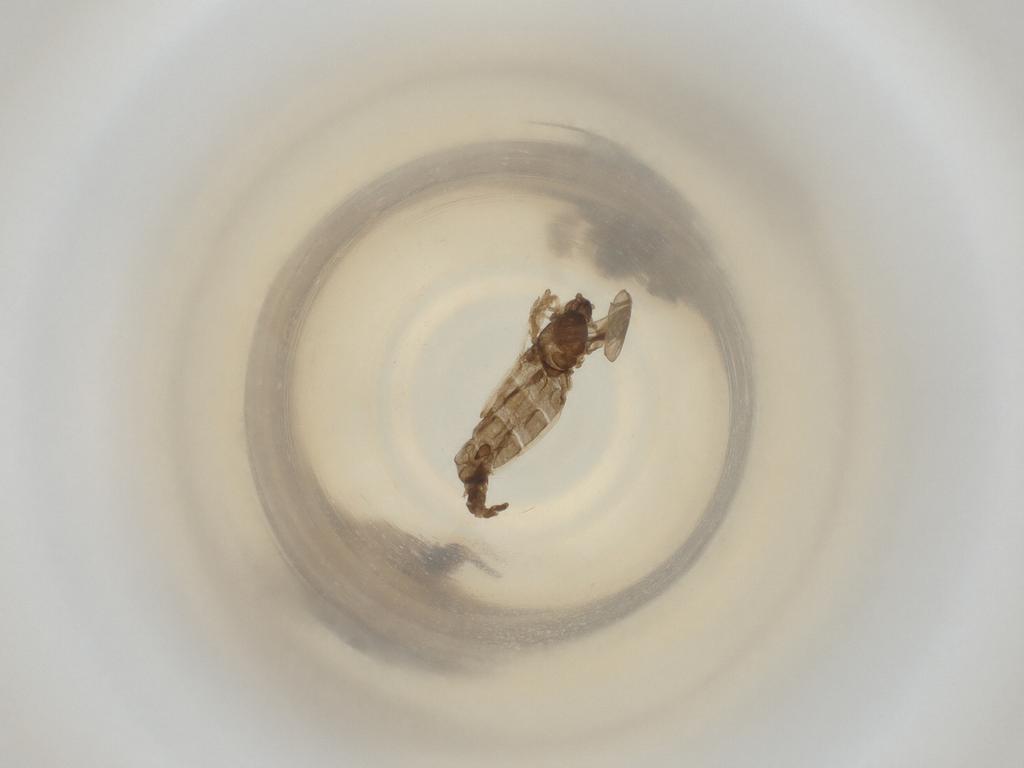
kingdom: Animalia
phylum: Arthropoda
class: Insecta
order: Diptera
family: Cecidomyiidae
